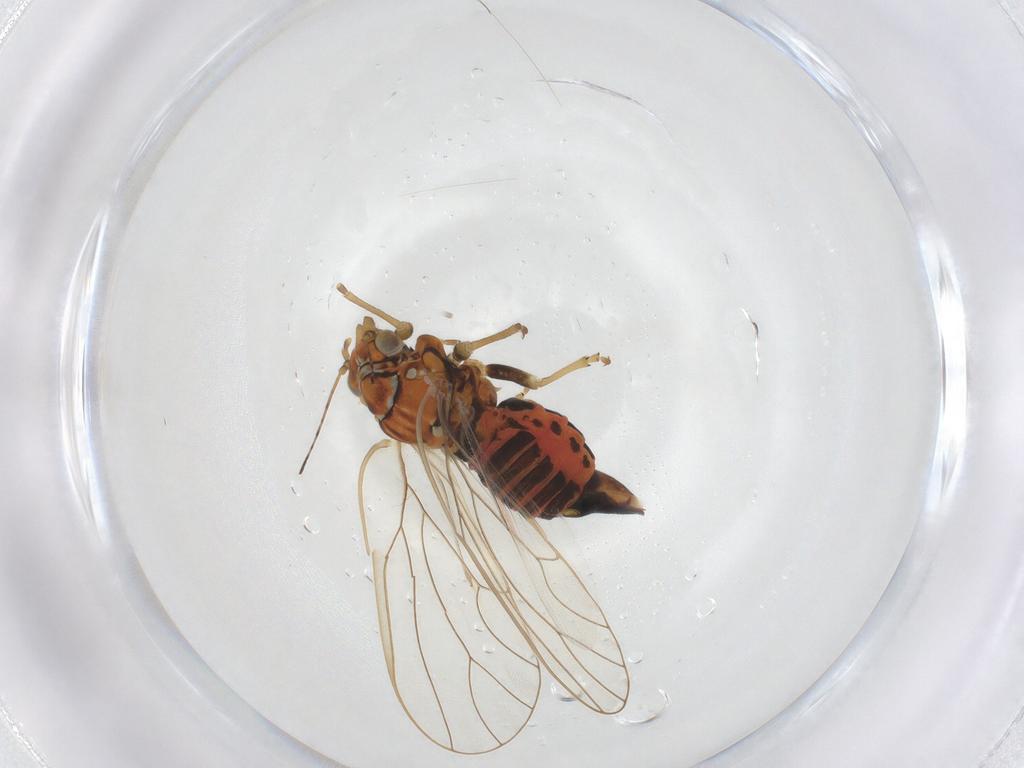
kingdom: Animalia
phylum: Arthropoda
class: Insecta
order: Hemiptera
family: Psyllidae
